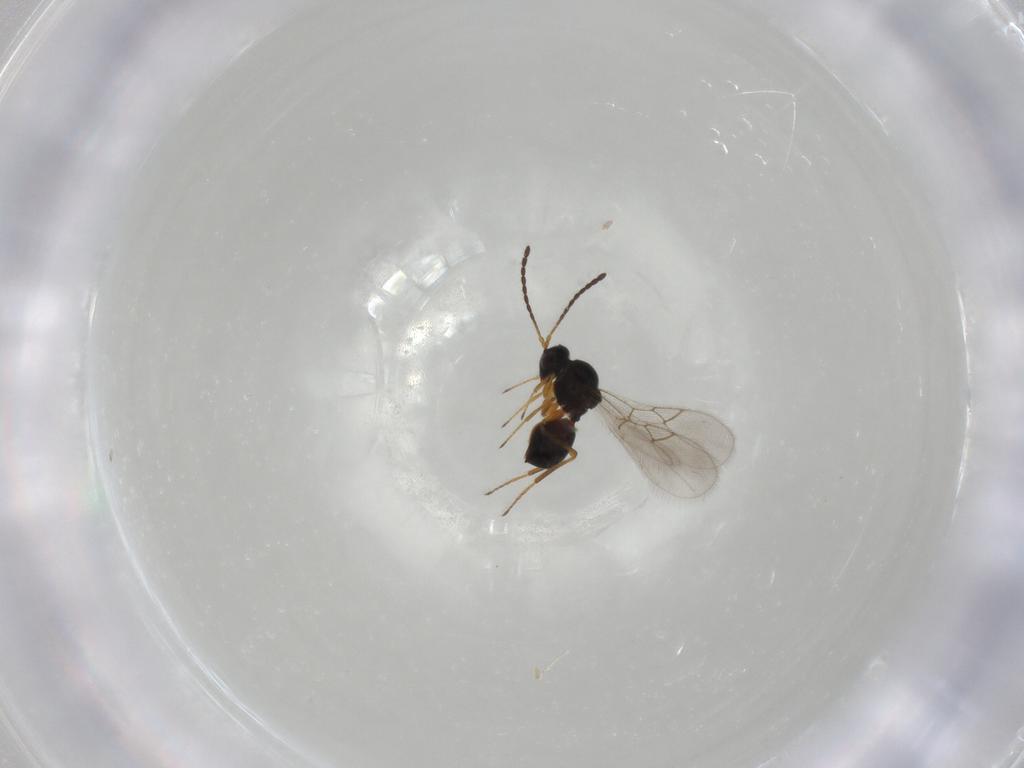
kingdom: Animalia
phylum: Arthropoda
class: Insecta
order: Hymenoptera
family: Figitidae
